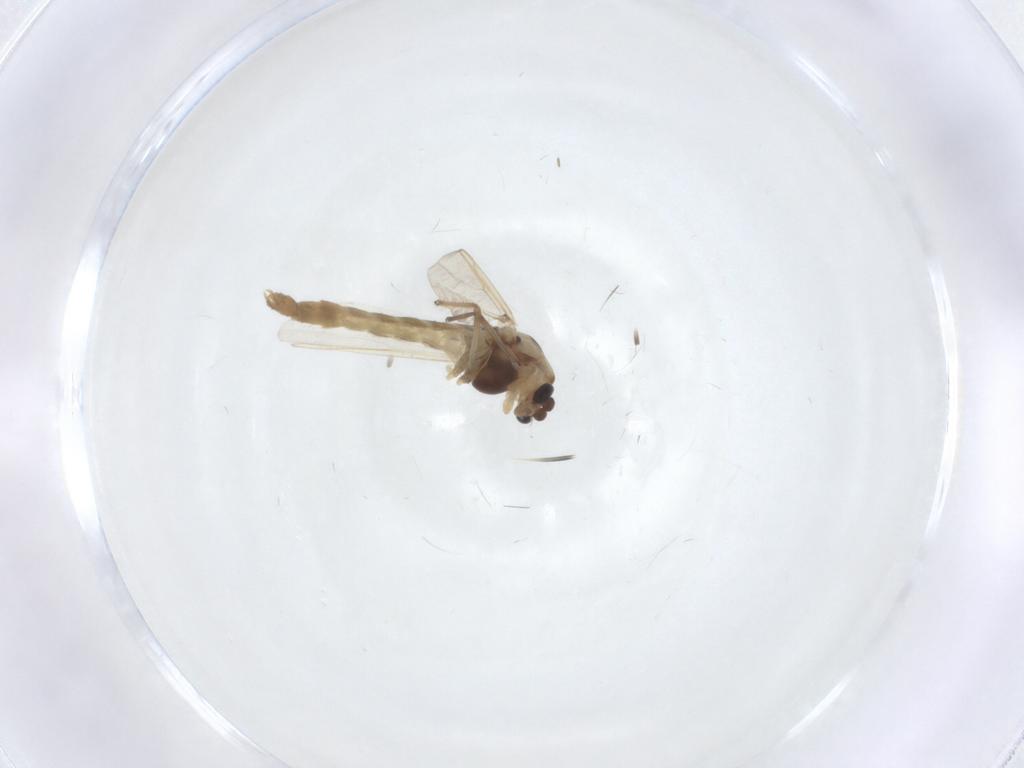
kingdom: Animalia
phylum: Arthropoda
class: Insecta
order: Diptera
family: Chironomidae
